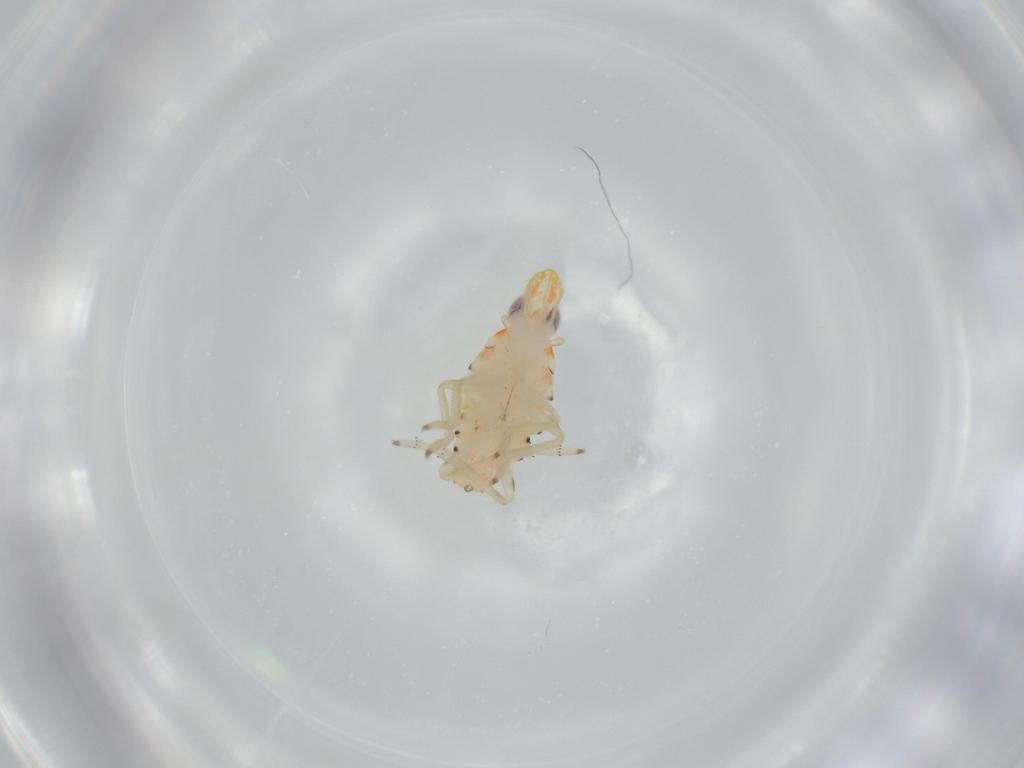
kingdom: Animalia
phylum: Arthropoda
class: Insecta
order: Hemiptera
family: Tropiduchidae
